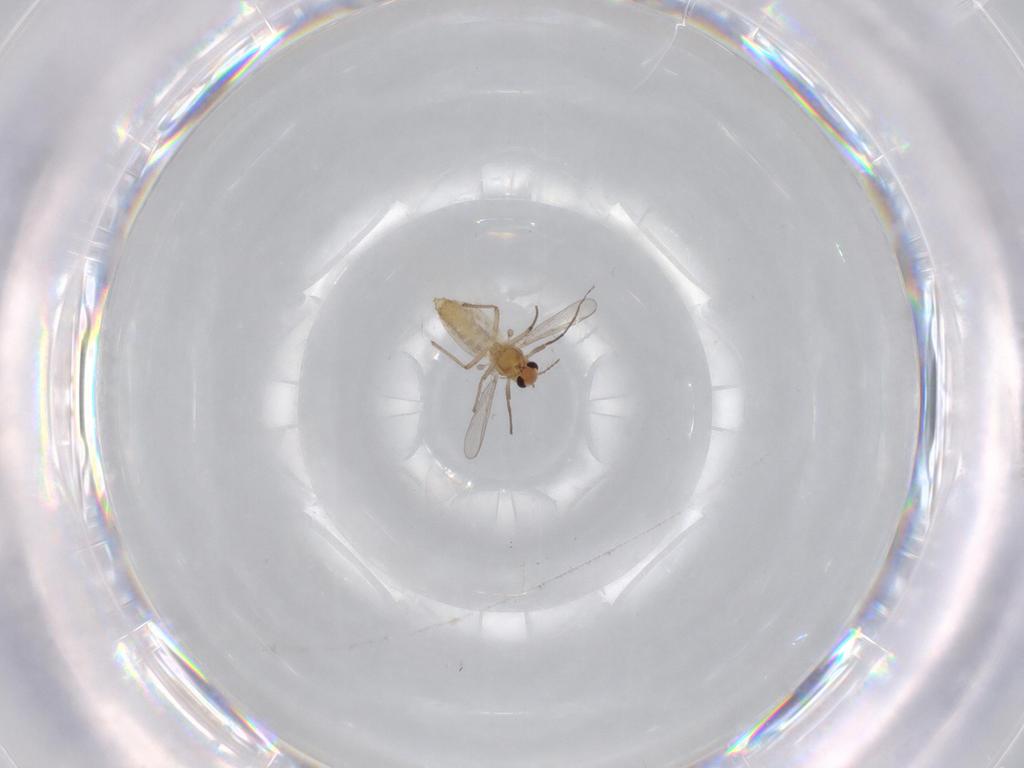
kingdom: Animalia
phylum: Arthropoda
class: Insecta
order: Diptera
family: Chironomidae
